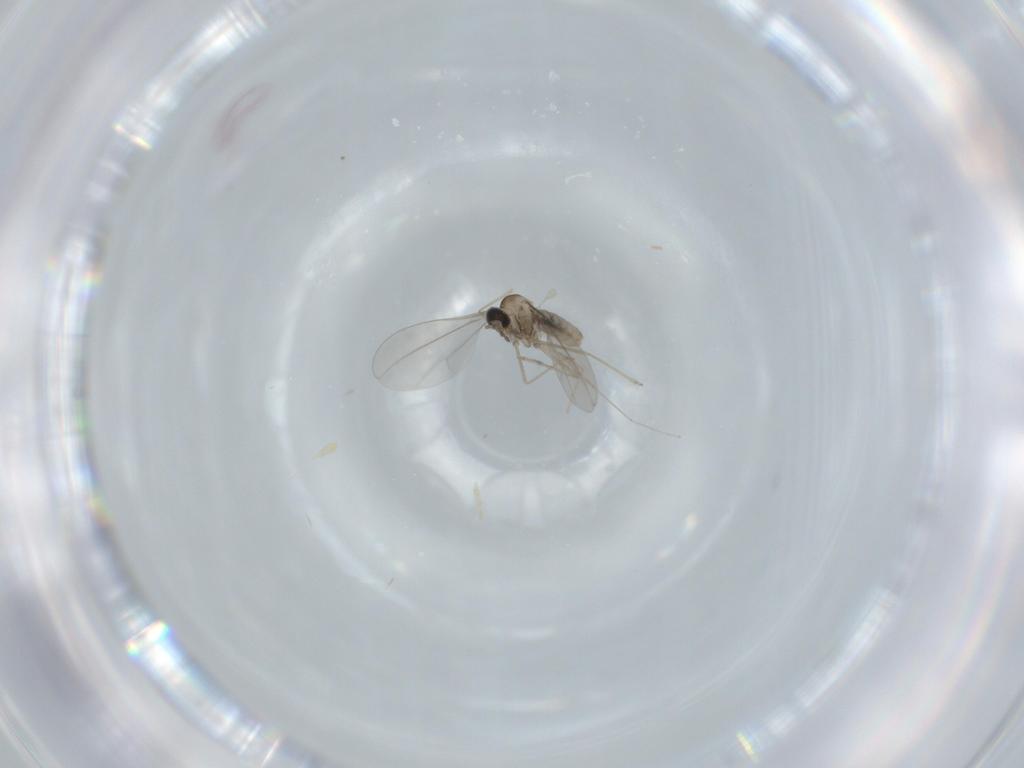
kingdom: Animalia
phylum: Arthropoda
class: Insecta
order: Diptera
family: Cecidomyiidae
